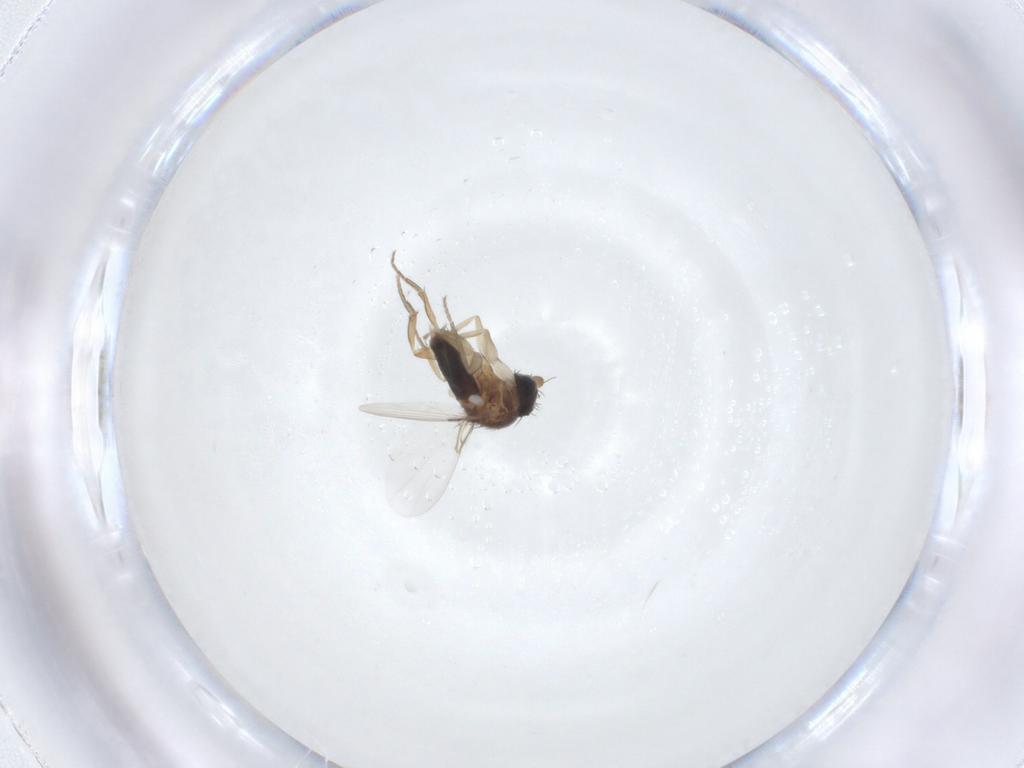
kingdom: Animalia
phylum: Arthropoda
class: Insecta
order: Diptera
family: Phoridae
